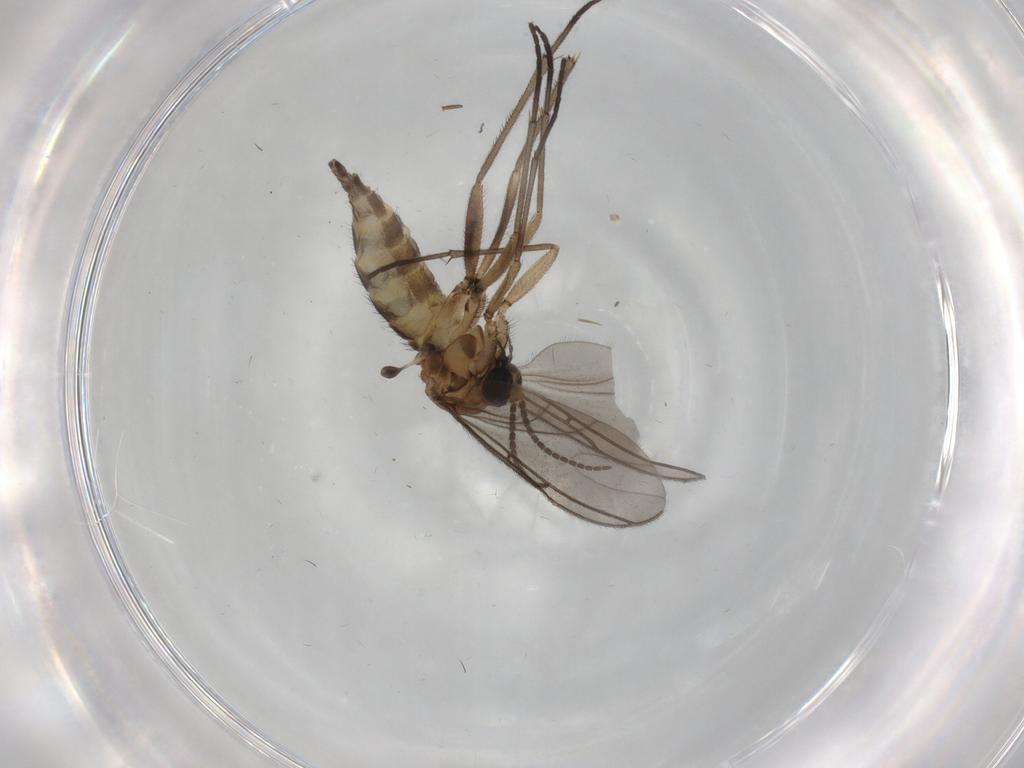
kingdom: Animalia
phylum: Arthropoda
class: Insecta
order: Diptera
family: Sciaridae
